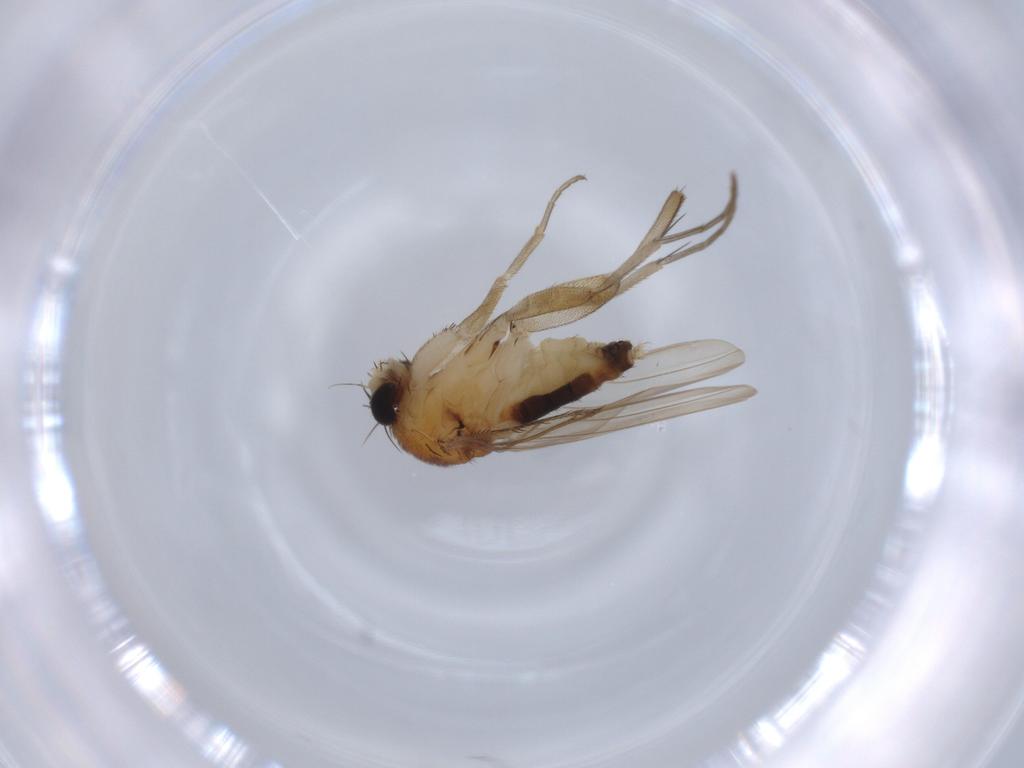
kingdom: Animalia
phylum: Arthropoda
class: Insecta
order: Diptera
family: Phoridae
